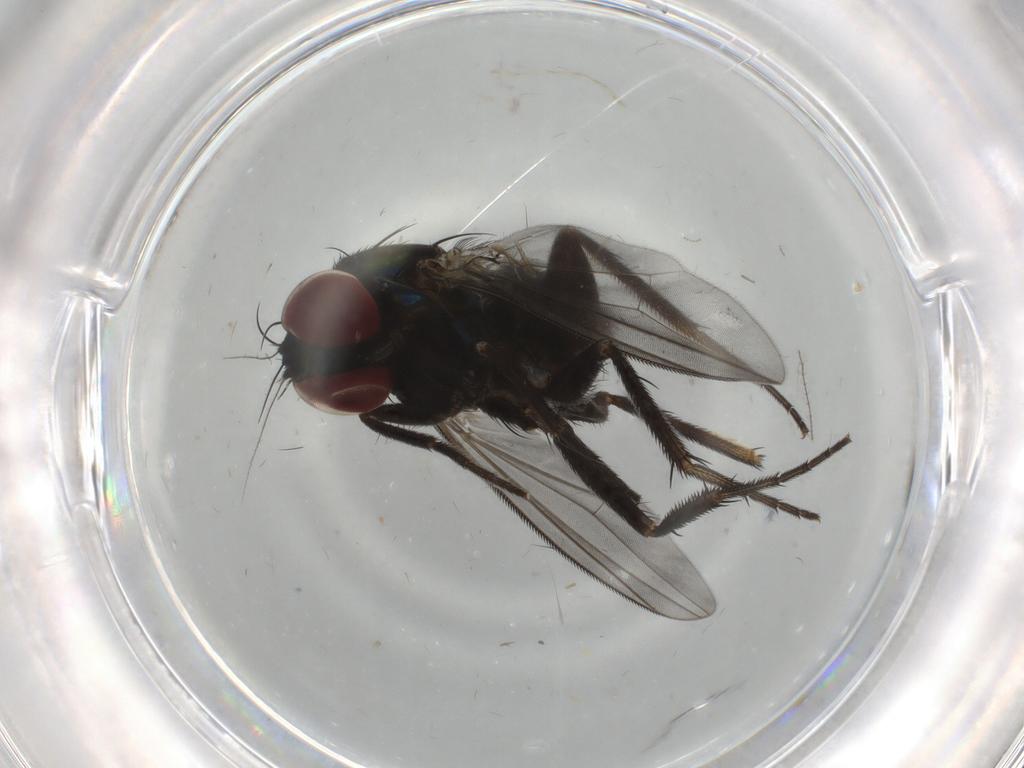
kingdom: Animalia
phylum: Arthropoda
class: Insecta
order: Diptera
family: Dolichopodidae
